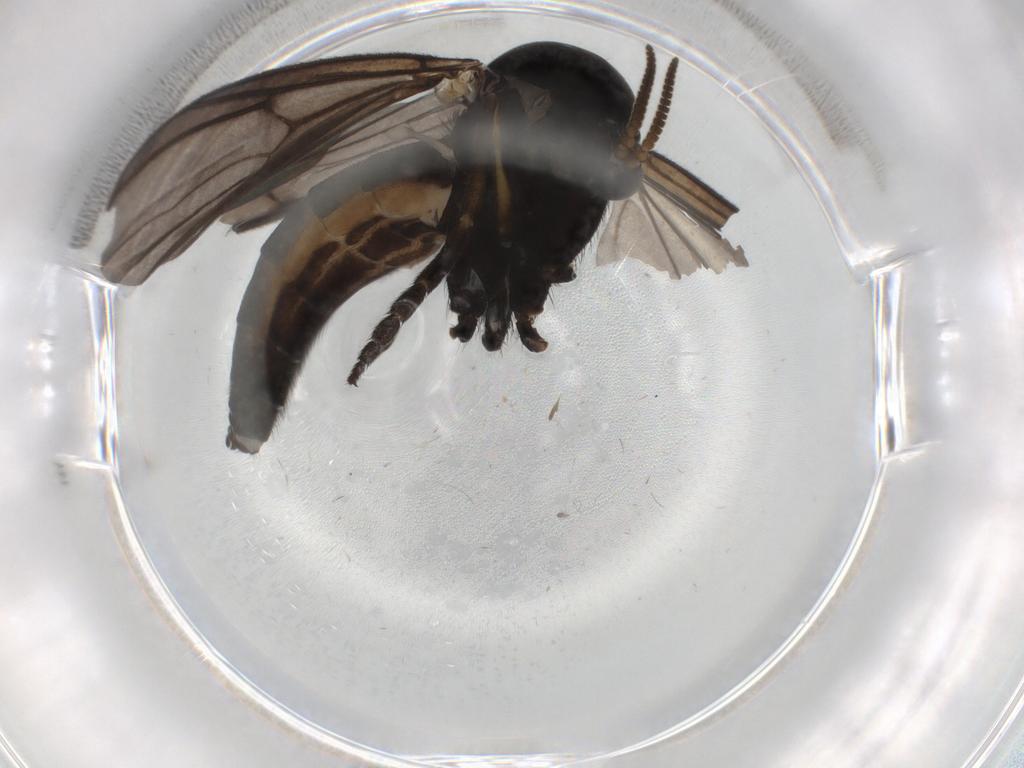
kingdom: Animalia
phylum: Arthropoda
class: Insecta
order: Diptera
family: Mycetophilidae
